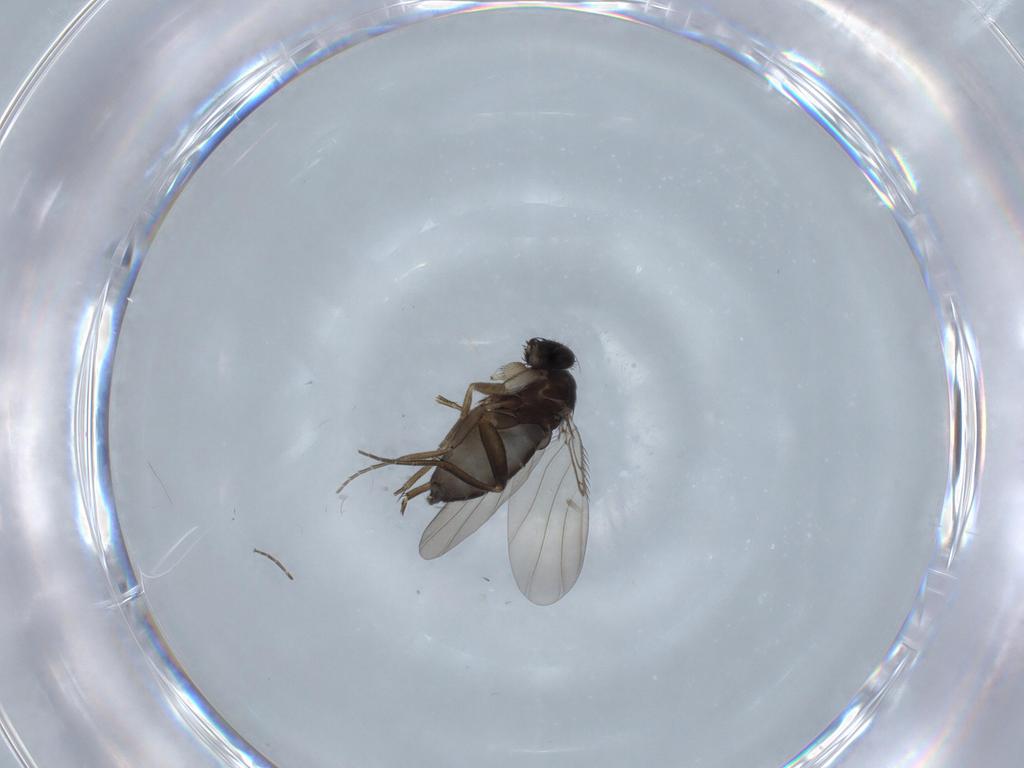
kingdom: Animalia
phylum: Arthropoda
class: Insecta
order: Diptera
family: Phoridae
